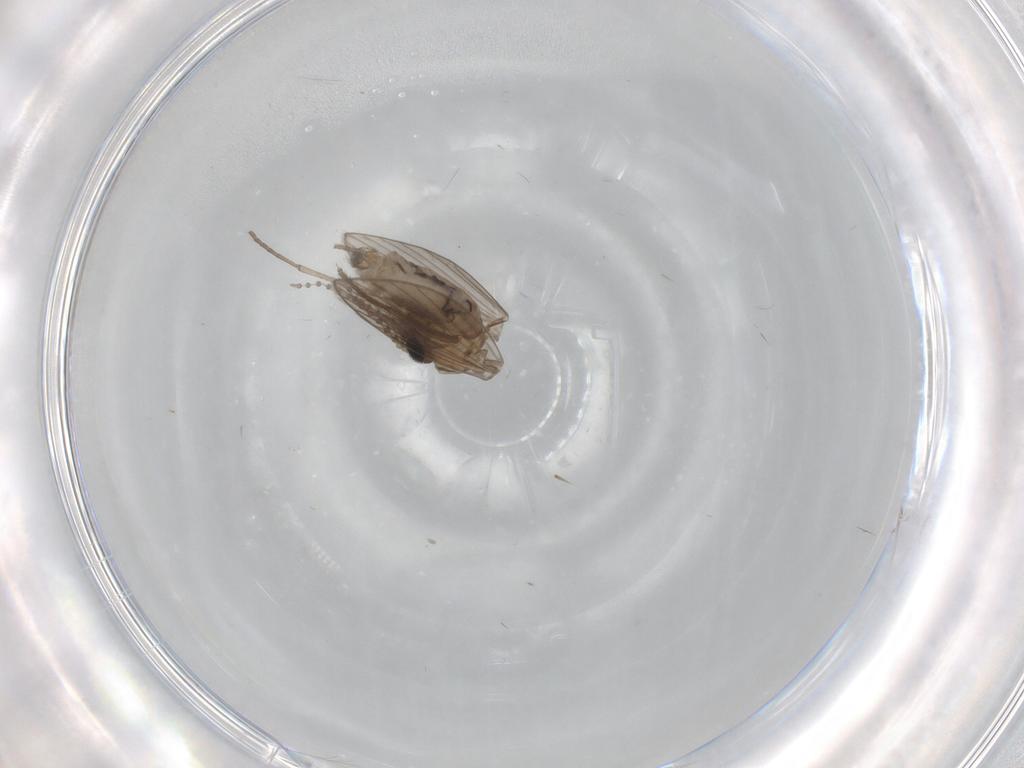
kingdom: Animalia
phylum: Arthropoda
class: Insecta
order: Diptera
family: Psychodidae
